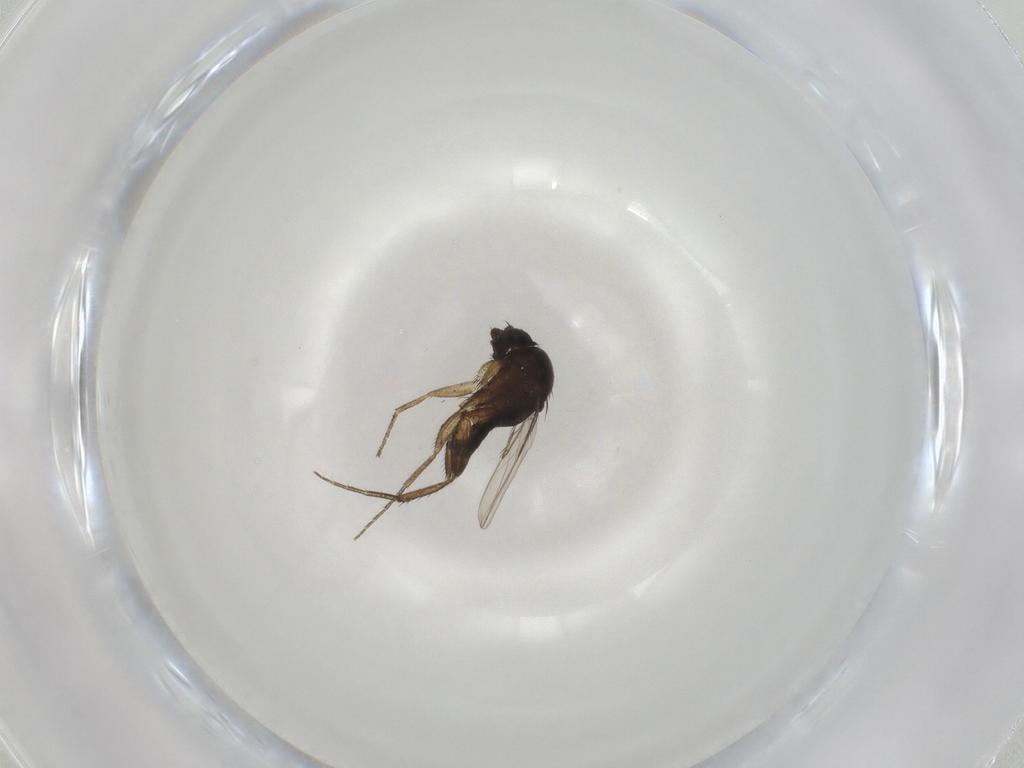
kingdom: Animalia
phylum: Arthropoda
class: Insecta
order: Diptera
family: Phoridae
